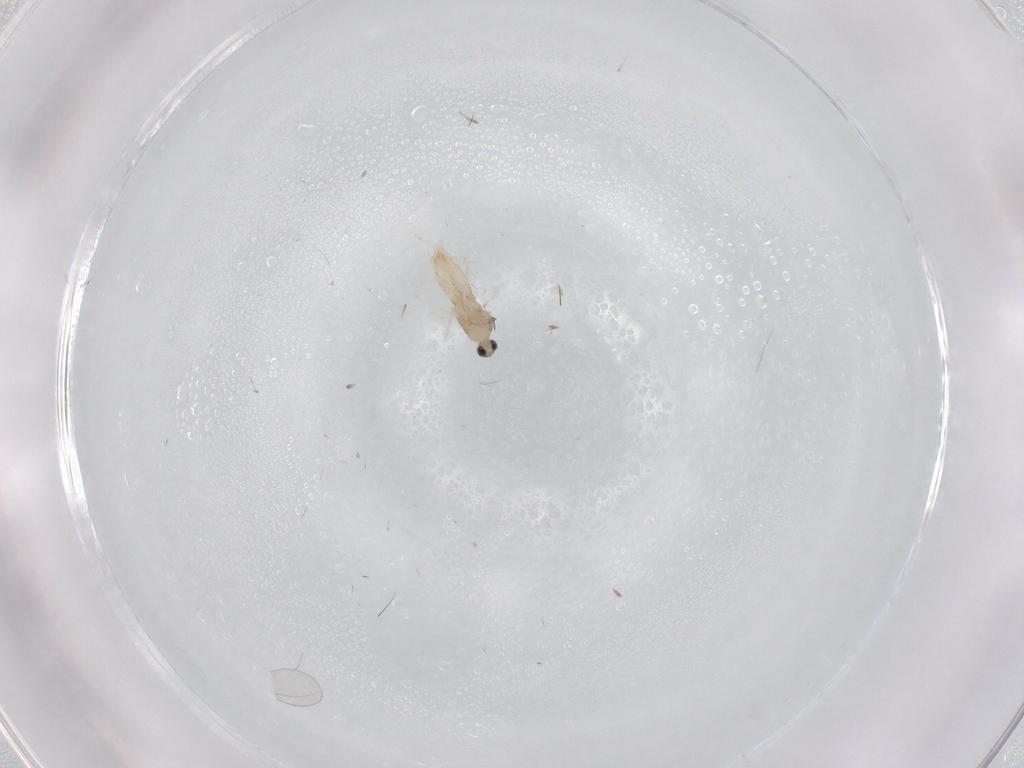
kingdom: Animalia
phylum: Arthropoda
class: Insecta
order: Diptera
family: Cecidomyiidae
